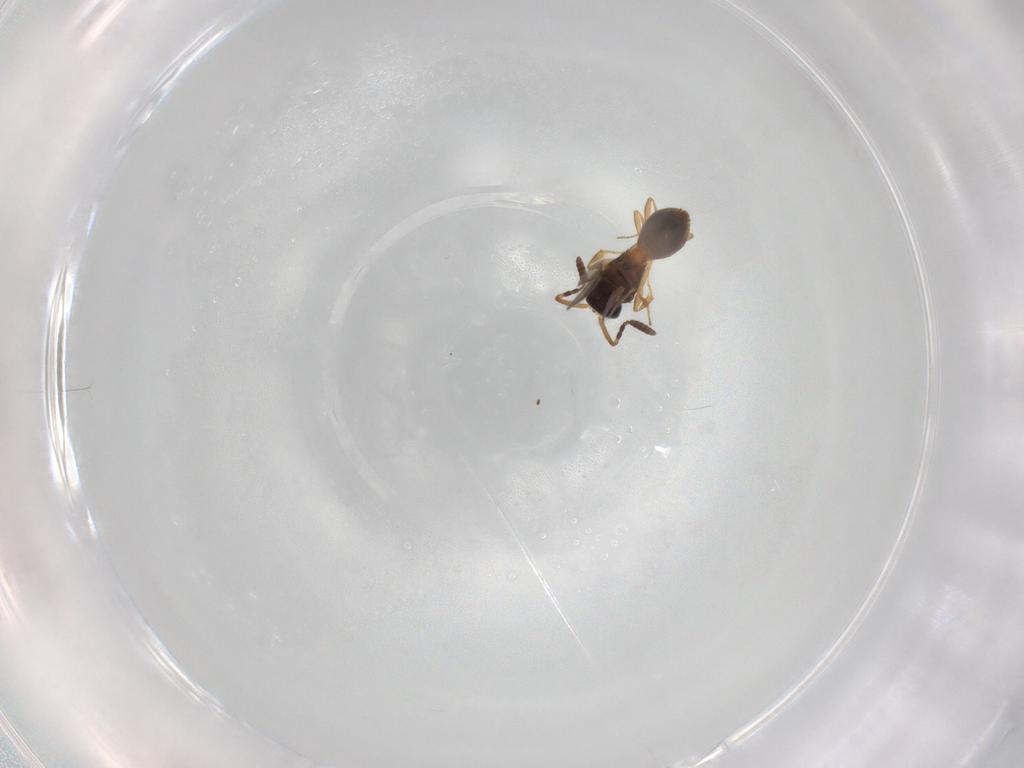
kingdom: Animalia
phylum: Arthropoda
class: Insecta
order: Hymenoptera
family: Scelionidae
